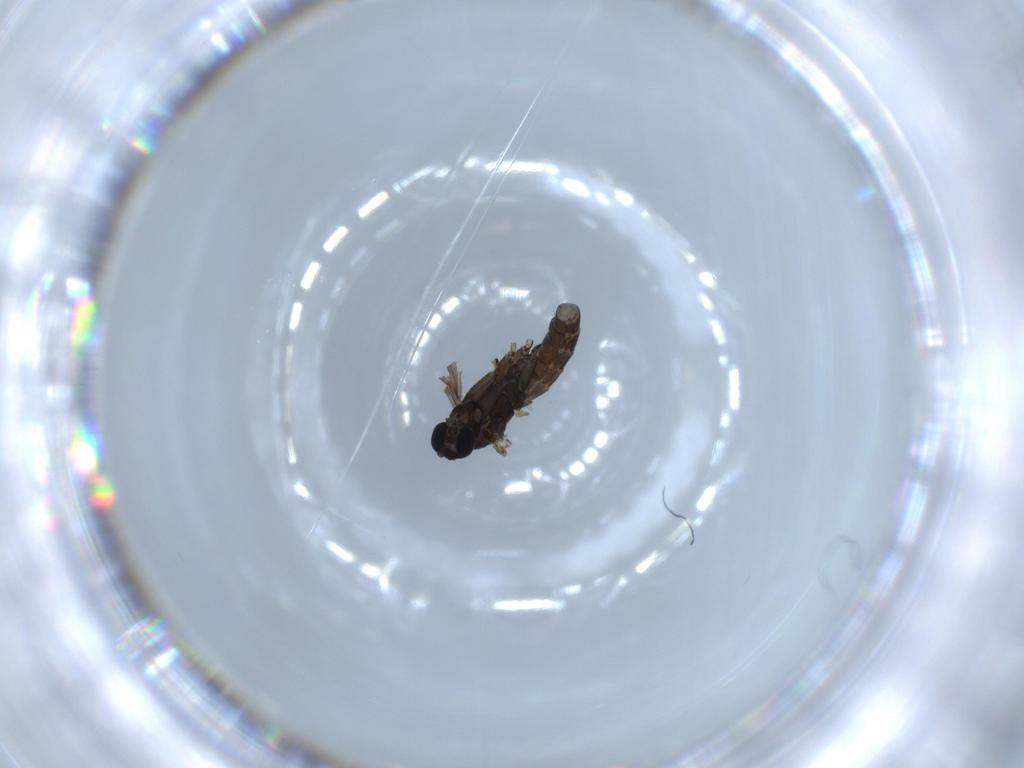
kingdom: Animalia
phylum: Arthropoda
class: Insecta
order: Diptera
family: Sciaridae
